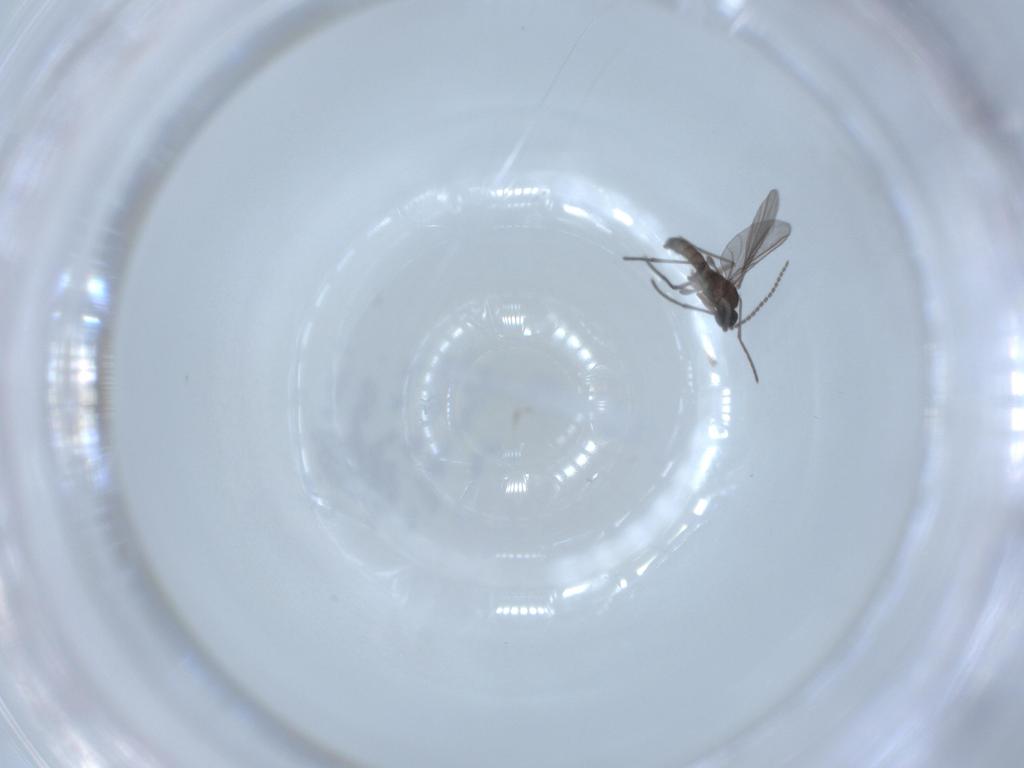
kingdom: Animalia
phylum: Arthropoda
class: Insecta
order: Diptera
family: Sciaridae
